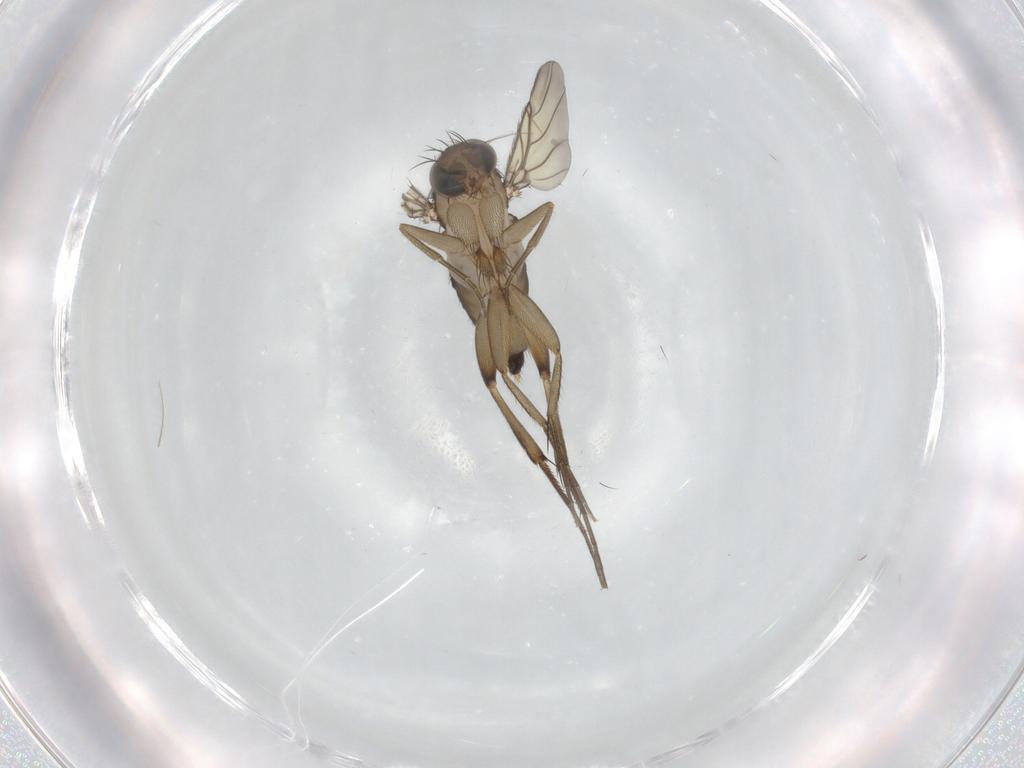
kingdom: Animalia
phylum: Arthropoda
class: Insecta
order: Diptera
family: Phoridae
